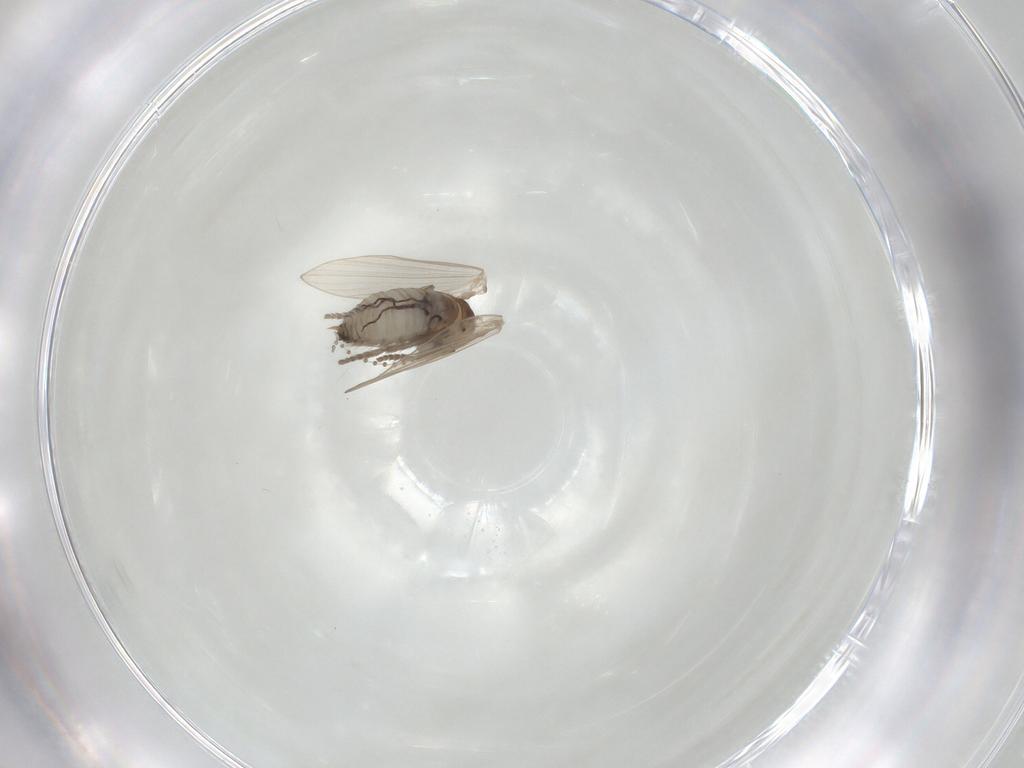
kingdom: Animalia
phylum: Arthropoda
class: Insecta
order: Diptera
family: Psychodidae
